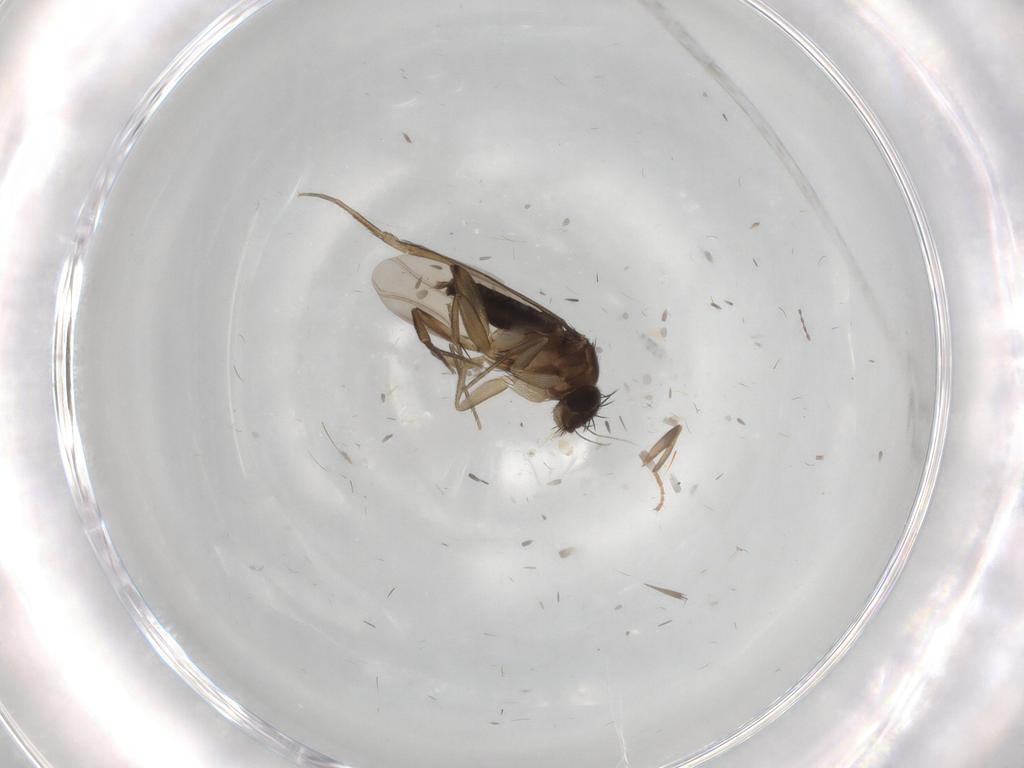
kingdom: Animalia
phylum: Arthropoda
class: Insecta
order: Diptera
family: Phoridae
